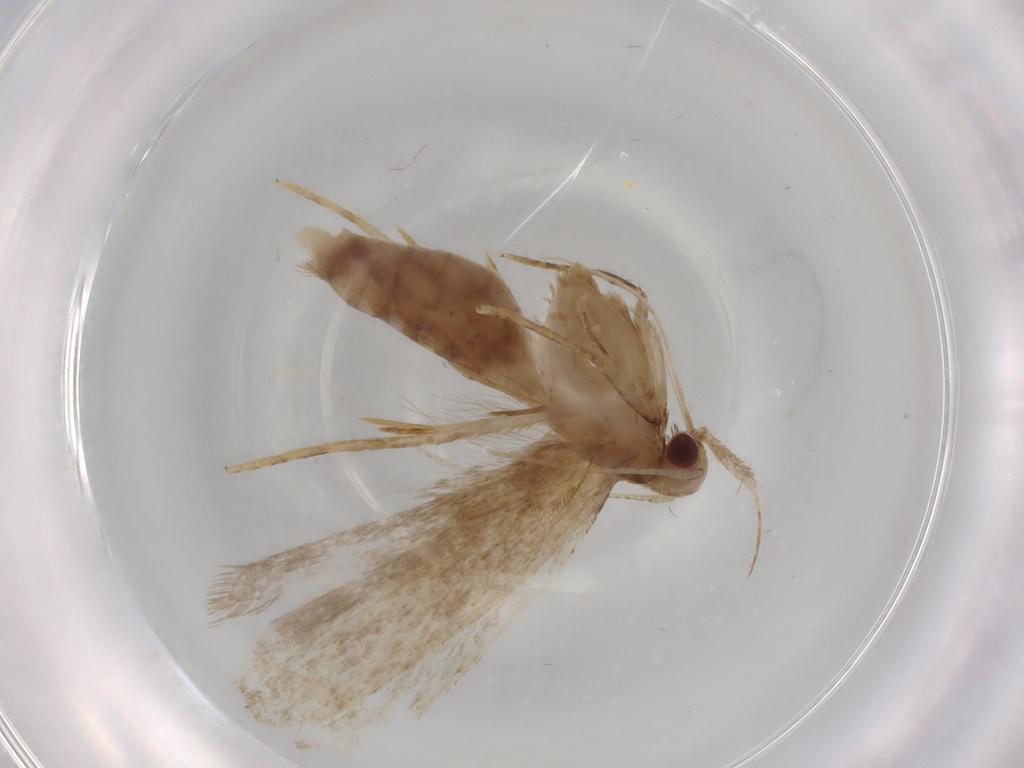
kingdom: Animalia
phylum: Arthropoda
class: Insecta
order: Lepidoptera
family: Gelechiidae
